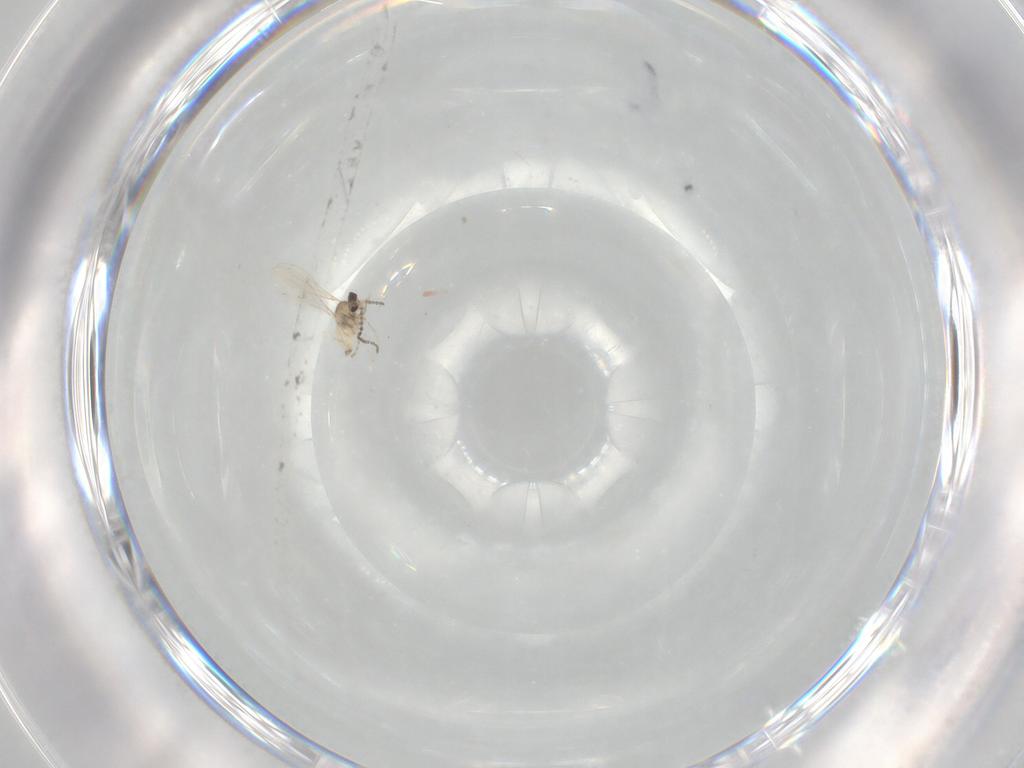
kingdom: Animalia
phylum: Arthropoda
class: Insecta
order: Diptera
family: Cecidomyiidae
